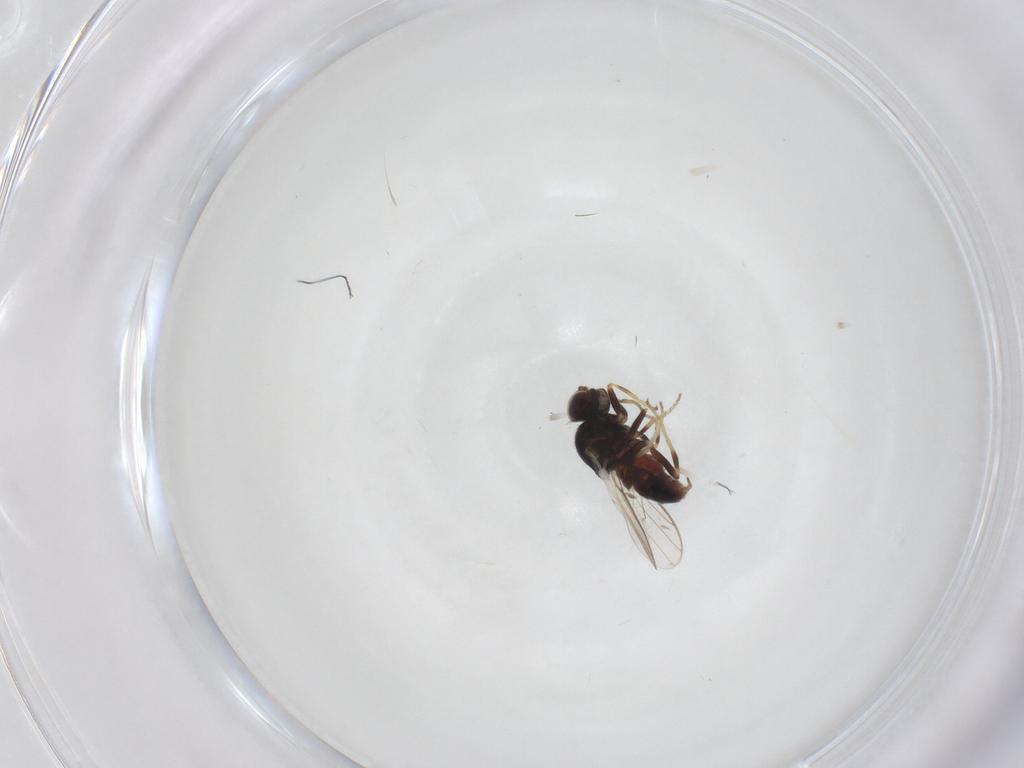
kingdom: Animalia
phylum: Arthropoda
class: Insecta
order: Diptera
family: Chloropidae
